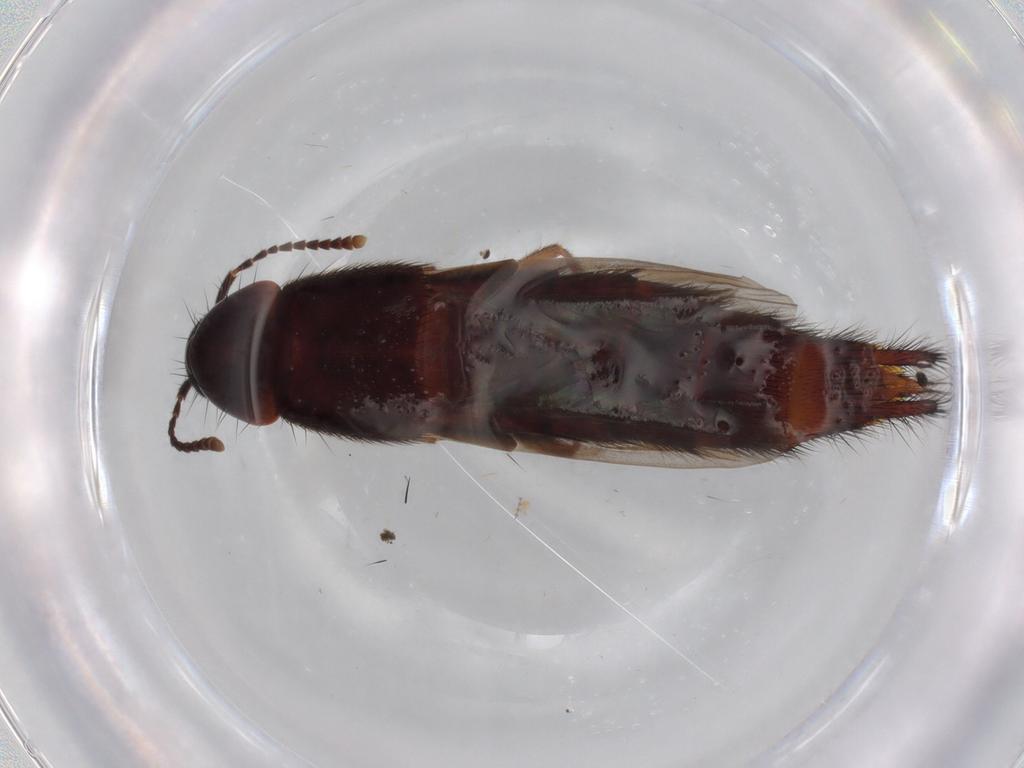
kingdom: Animalia
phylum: Arthropoda
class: Insecta
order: Coleoptera
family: Staphylinidae
